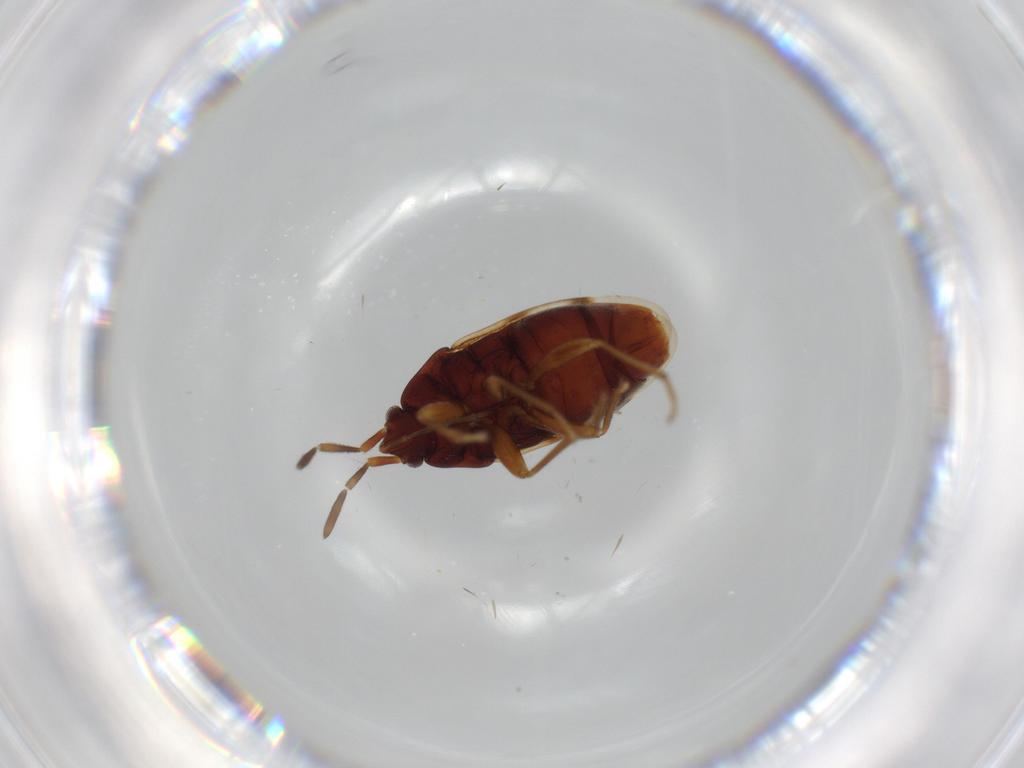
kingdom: Animalia
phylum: Arthropoda
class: Insecta
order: Hemiptera
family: Rhyparochromidae
